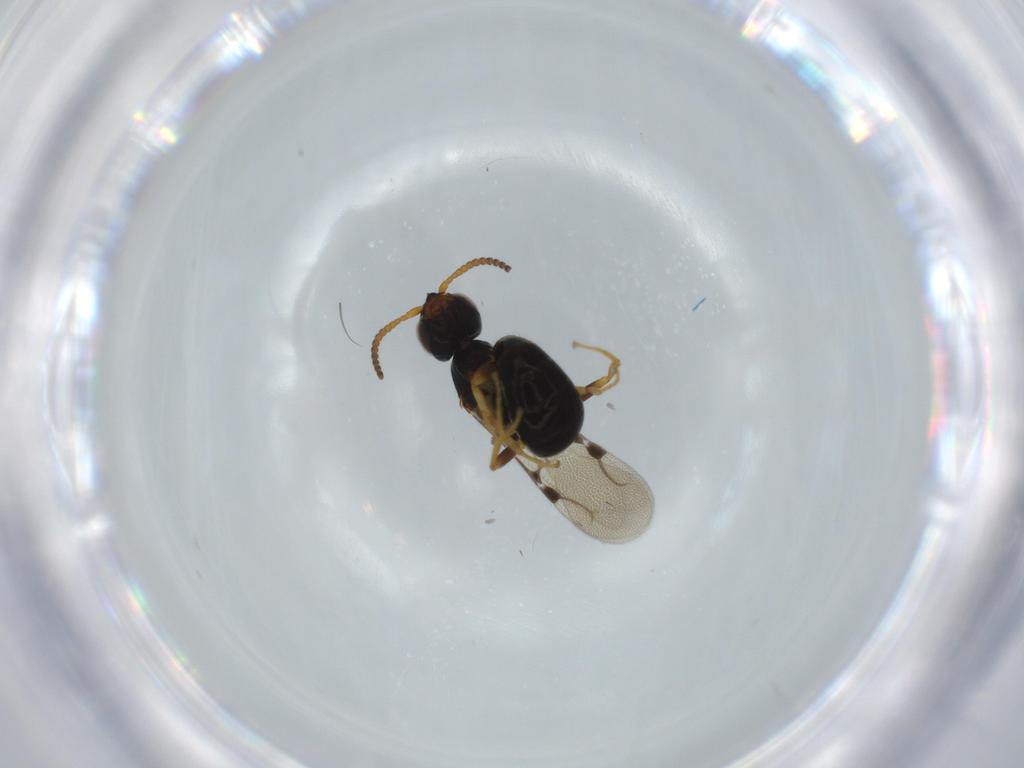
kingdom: Animalia
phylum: Arthropoda
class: Insecta
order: Hymenoptera
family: Bethylidae
